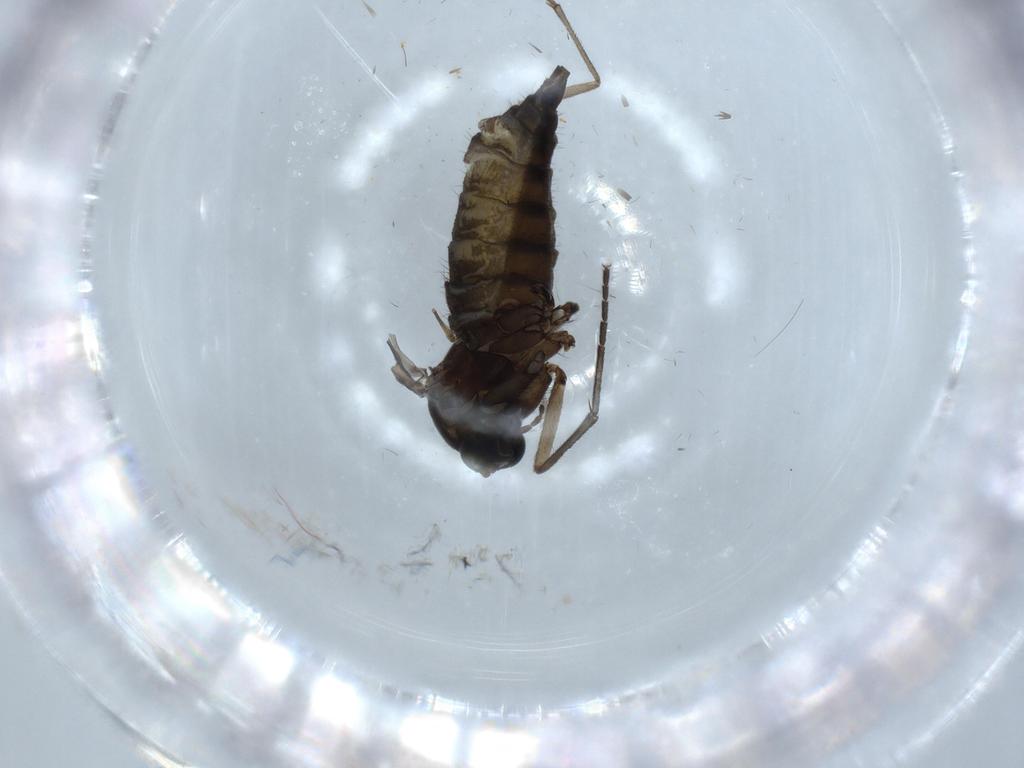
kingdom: Animalia
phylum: Arthropoda
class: Insecta
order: Diptera
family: Sciaridae
